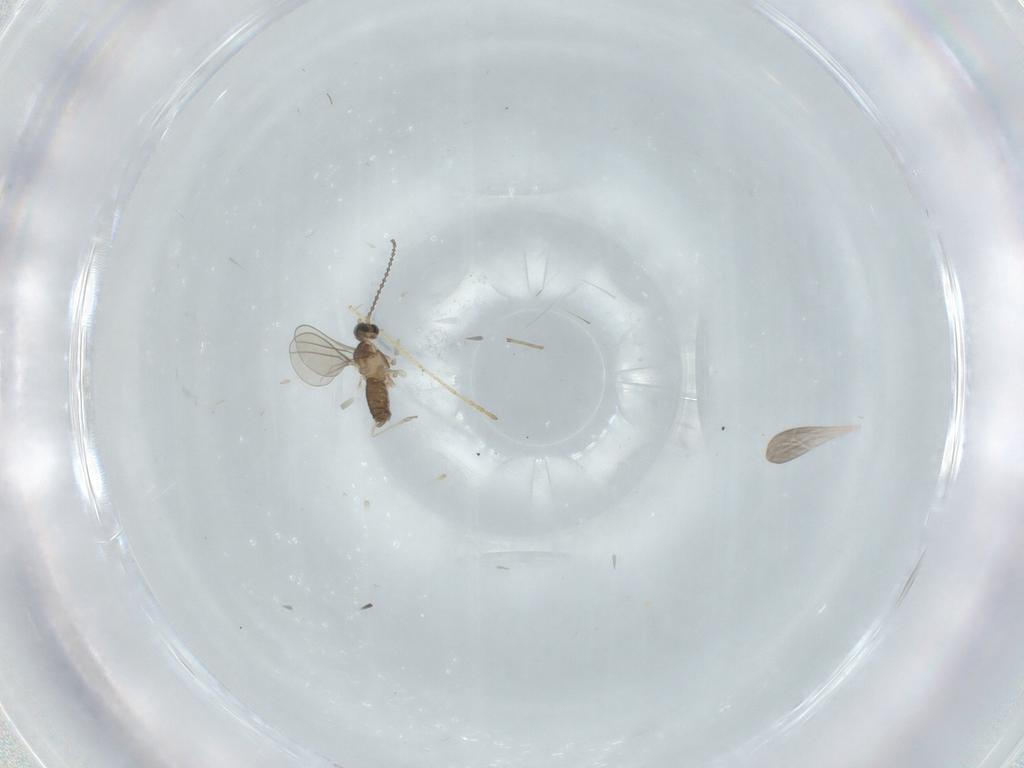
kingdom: Animalia
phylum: Arthropoda
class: Insecta
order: Diptera
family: Cecidomyiidae
